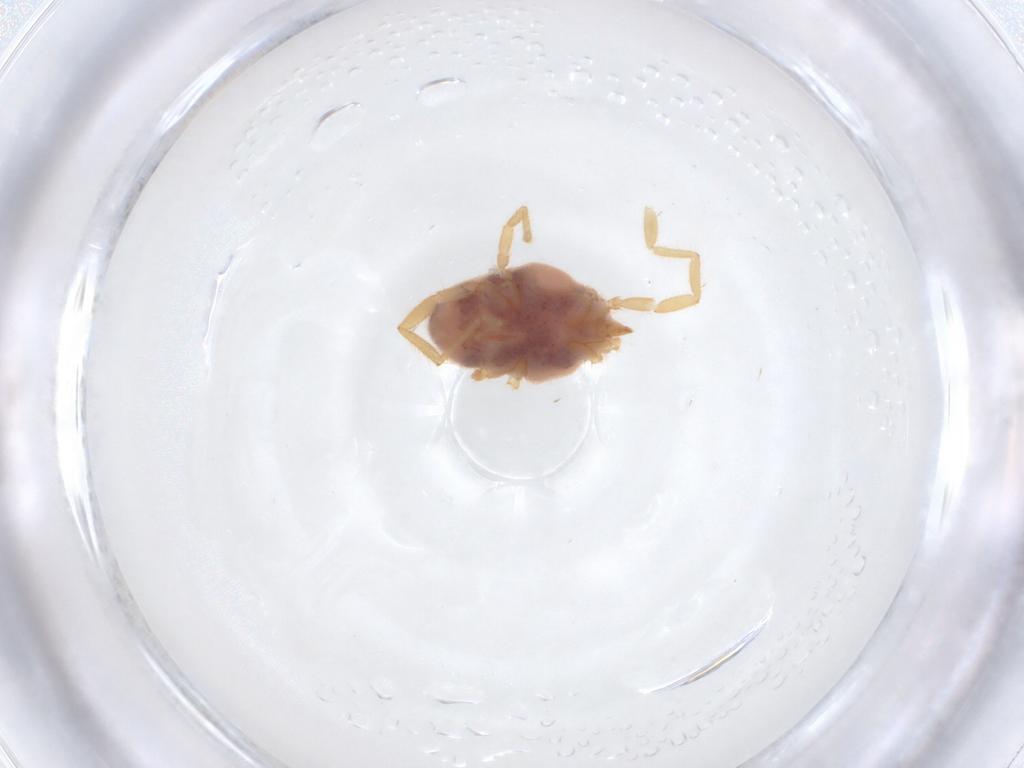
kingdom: Animalia
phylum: Arthropoda
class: Arachnida
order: Trombidiformes
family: Erythraeidae
